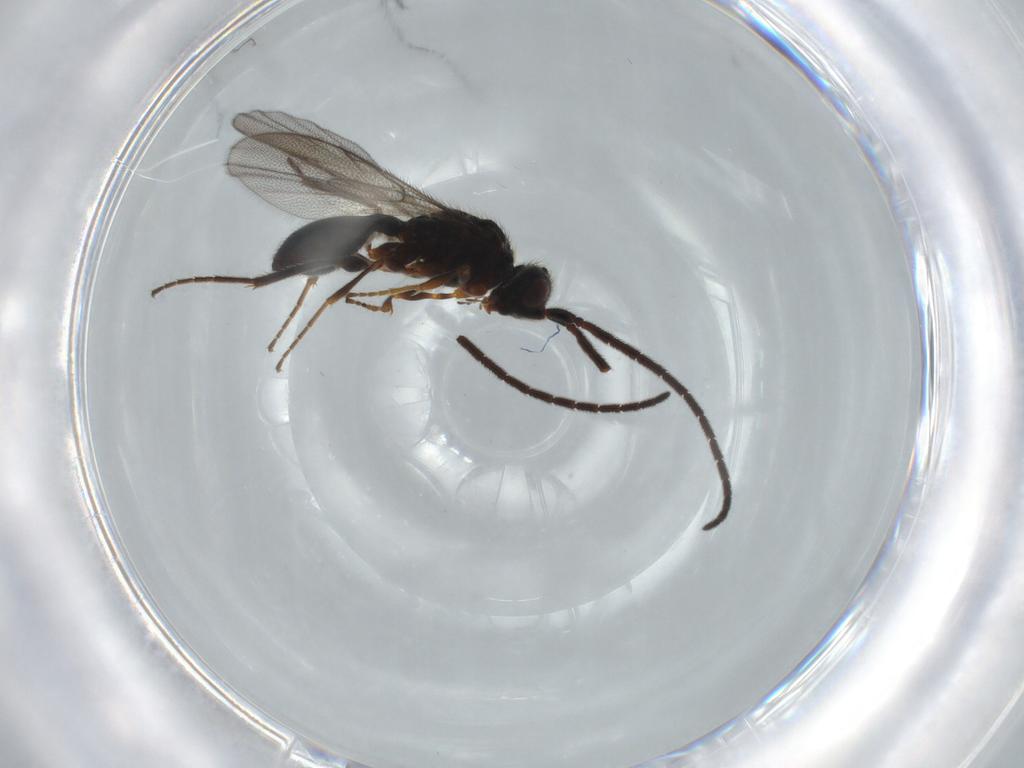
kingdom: Animalia
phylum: Arthropoda
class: Insecta
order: Hymenoptera
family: Diapriidae
